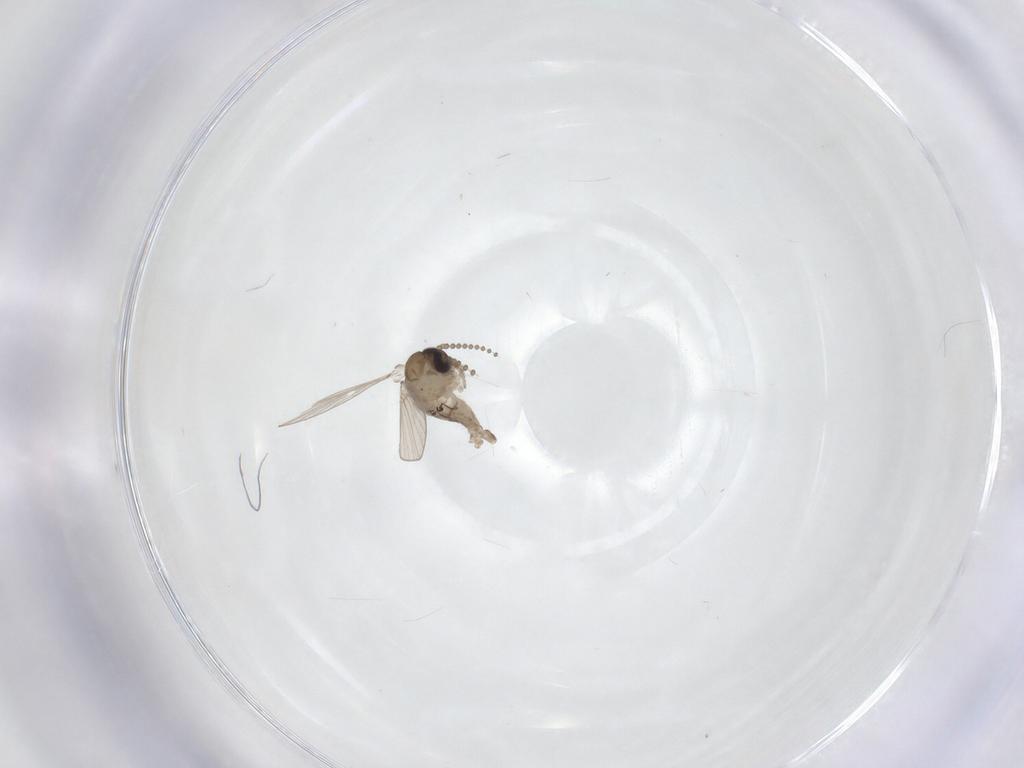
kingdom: Animalia
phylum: Arthropoda
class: Insecta
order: Diptera
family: Psychodidae
